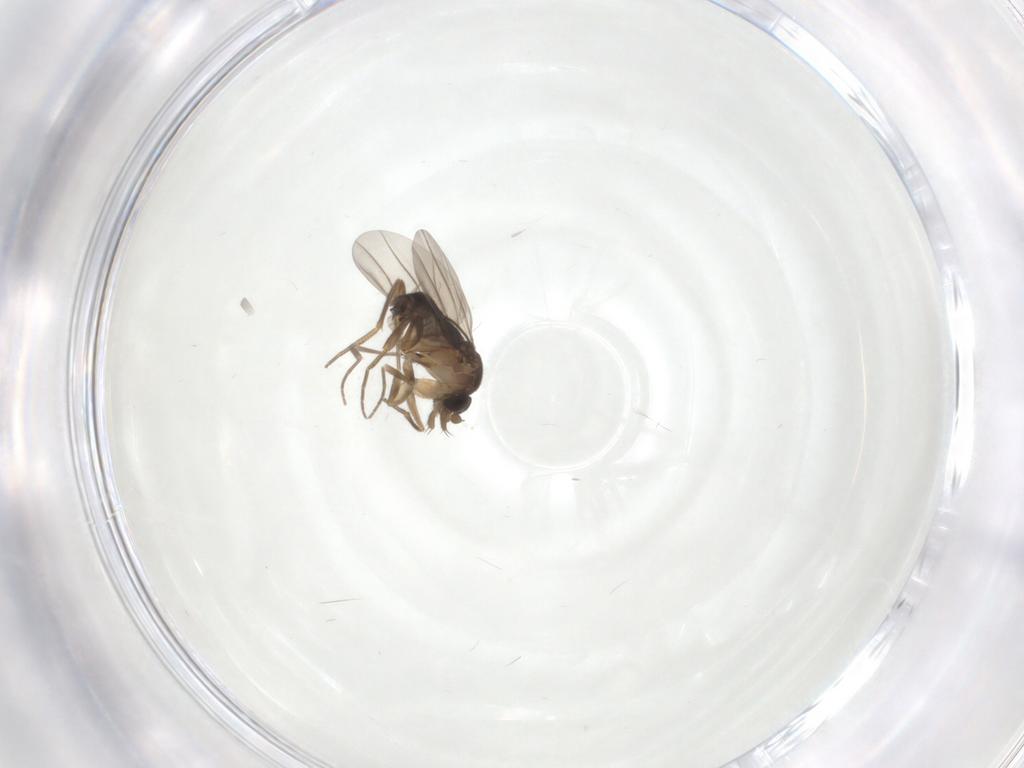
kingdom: Animalia
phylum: Arthropoda
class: Insecta
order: Diptera
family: Phoridae
